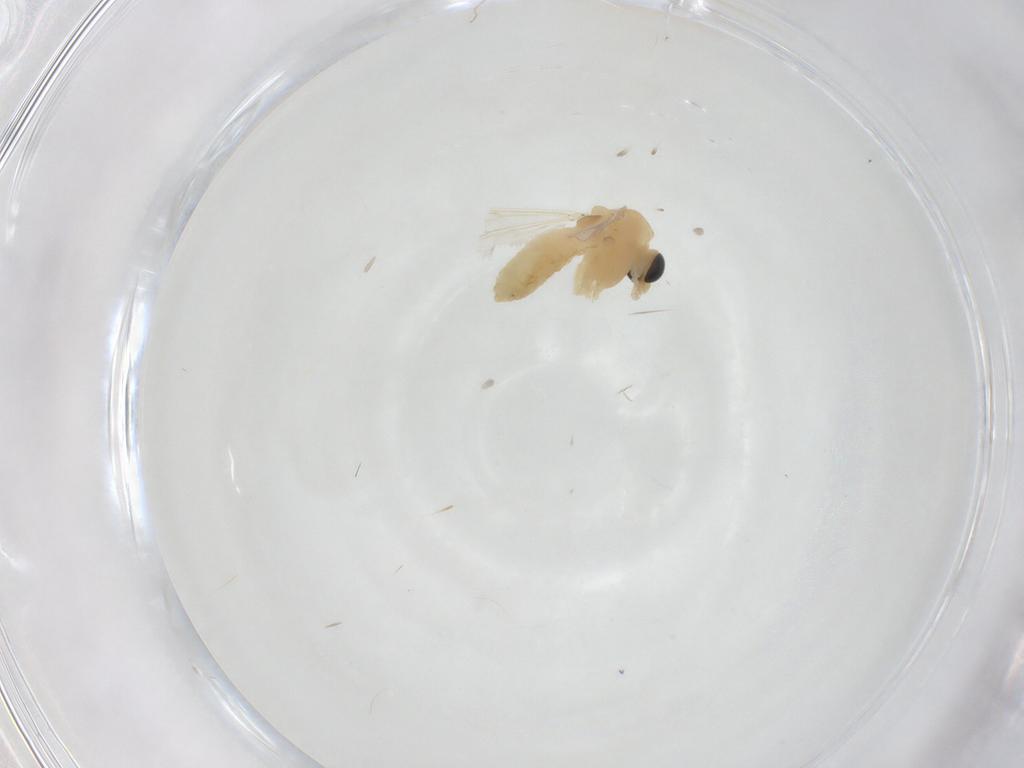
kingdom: Animalia
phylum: Arthropoda
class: Insecta
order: Diptera
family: Chironomidae
